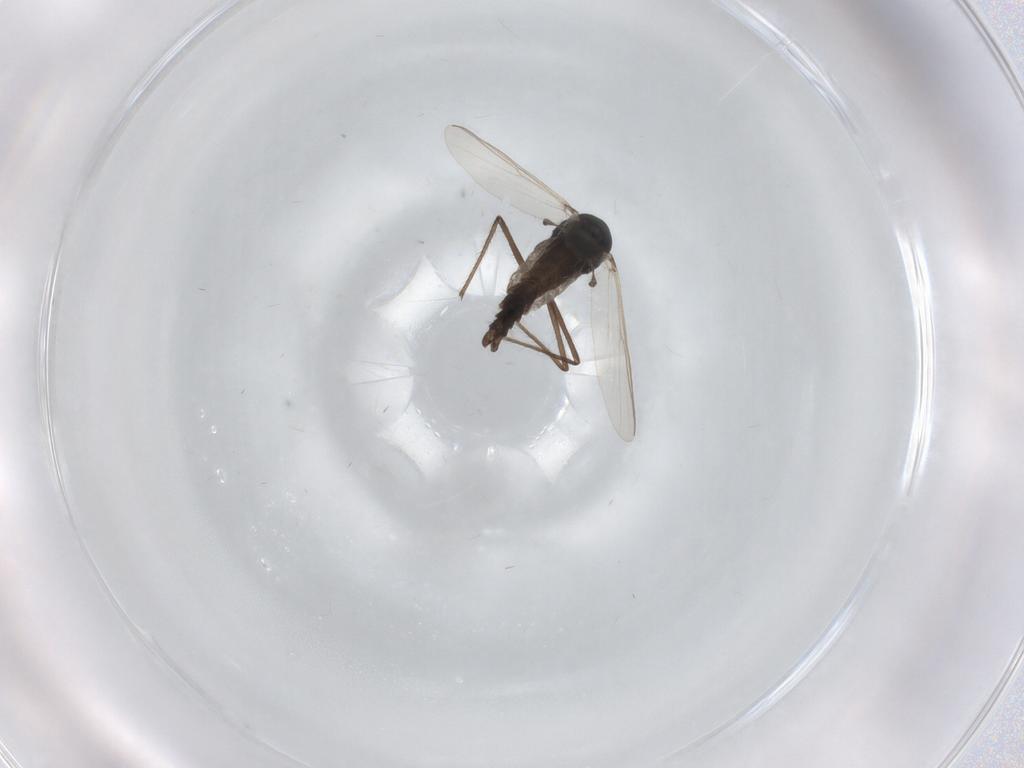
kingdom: Animalia
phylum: Arthropoda
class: Insecta
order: Diptera
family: Chironomidae
